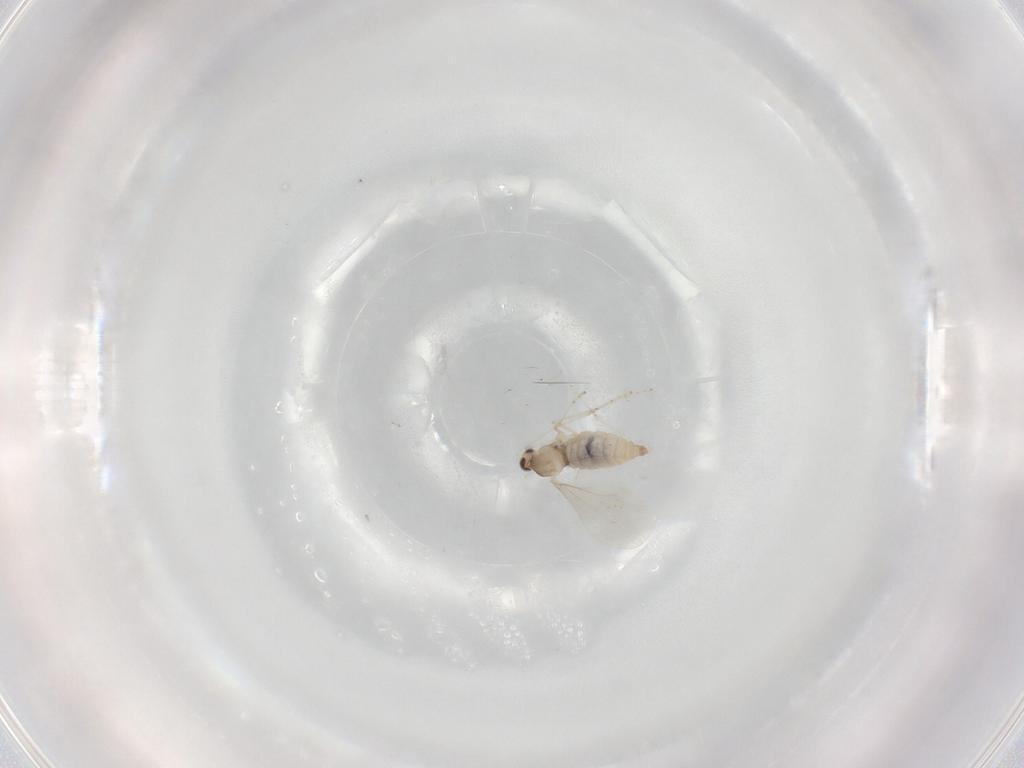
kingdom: Animalia
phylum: Arthropoda
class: Insecta
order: Diptera
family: Cecidomyiidae
